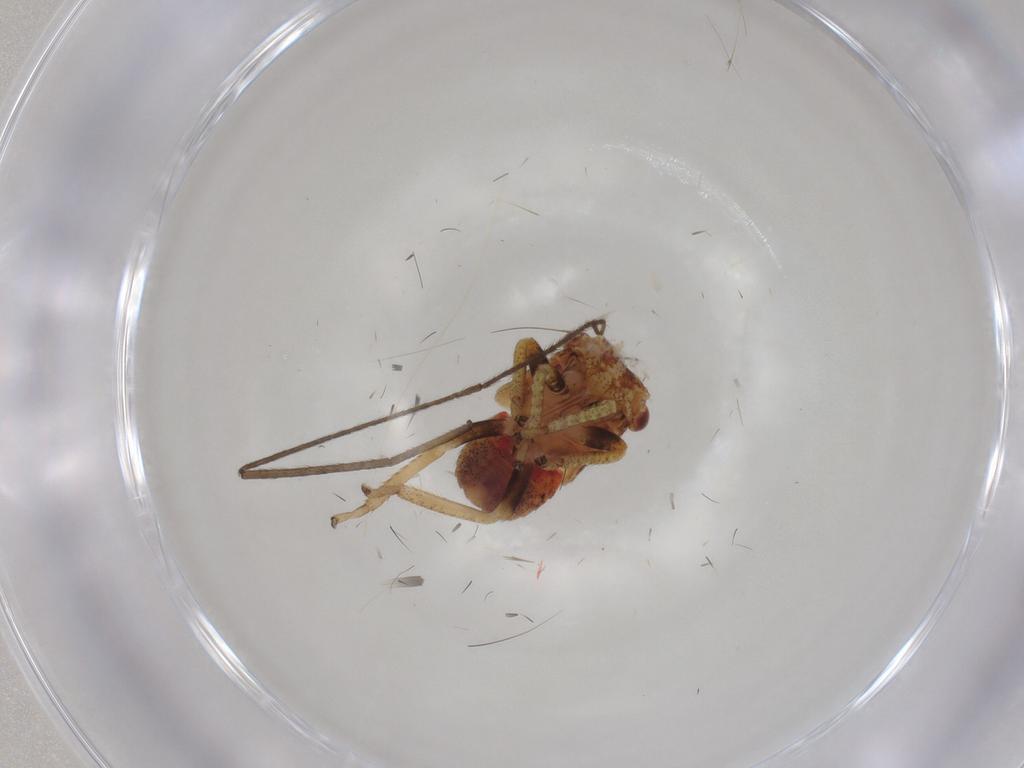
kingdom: Animalia
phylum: Arthropoda
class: Insecta
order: Hemiptera
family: Cicadellidae
